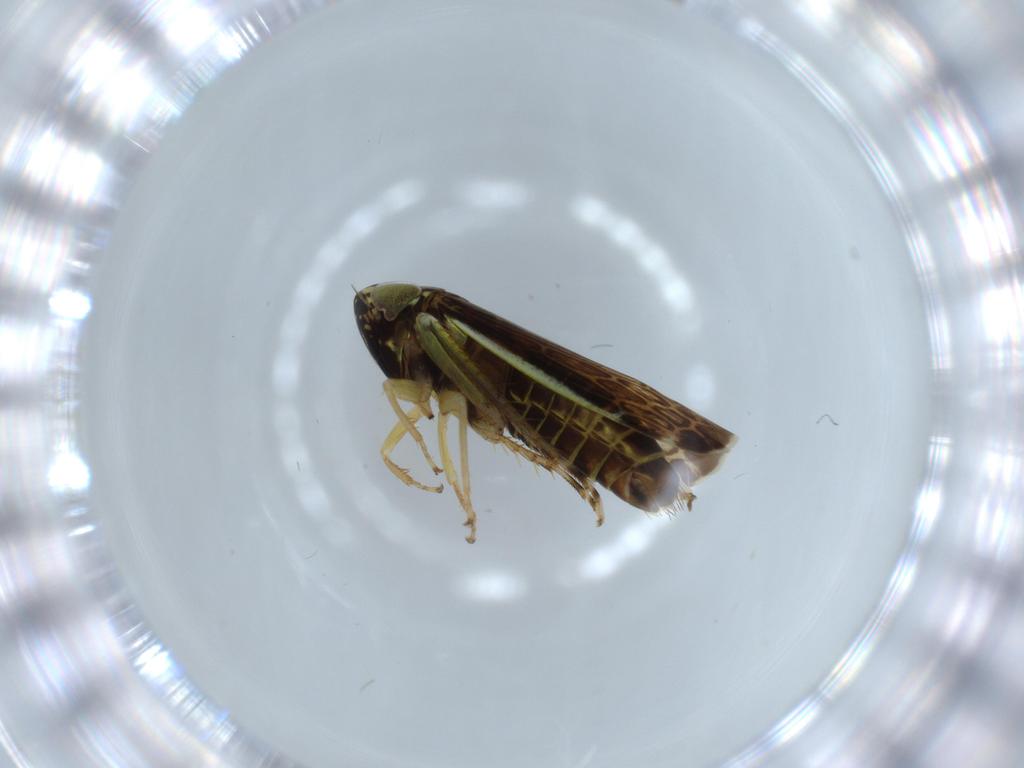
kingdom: Animalia
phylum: Arthropoda
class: Insecta
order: Hemiptera
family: Cicadellidae
